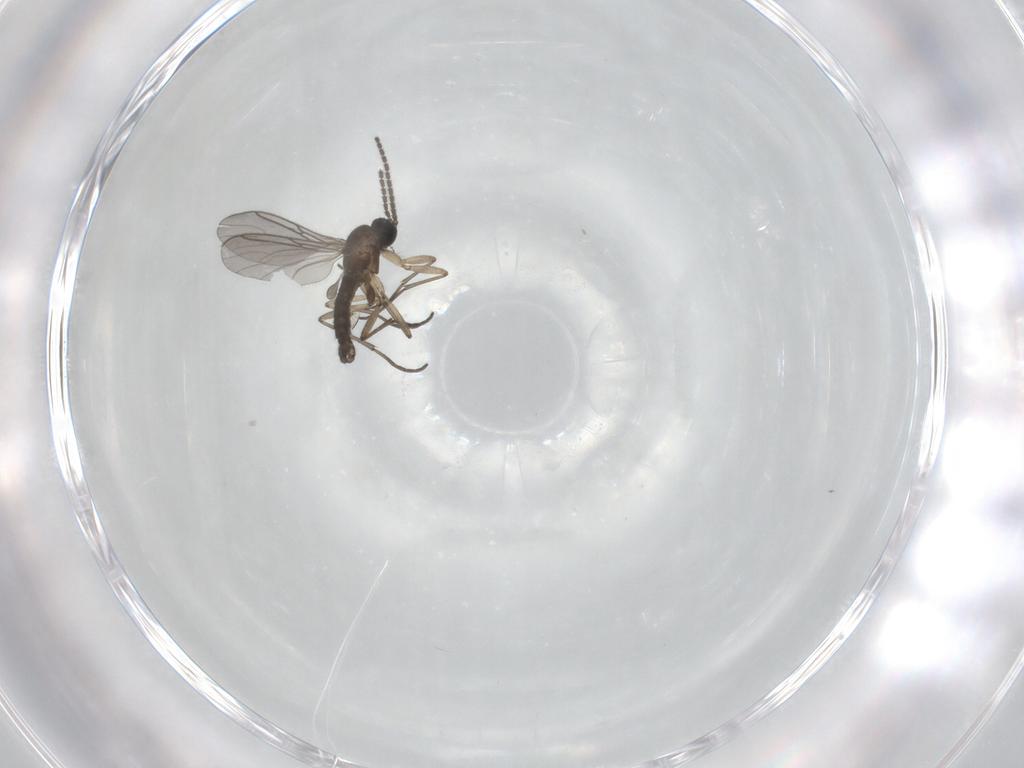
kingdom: Animalia
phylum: Arthropoda
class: Insecta
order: Diptera
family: Sciaridae
